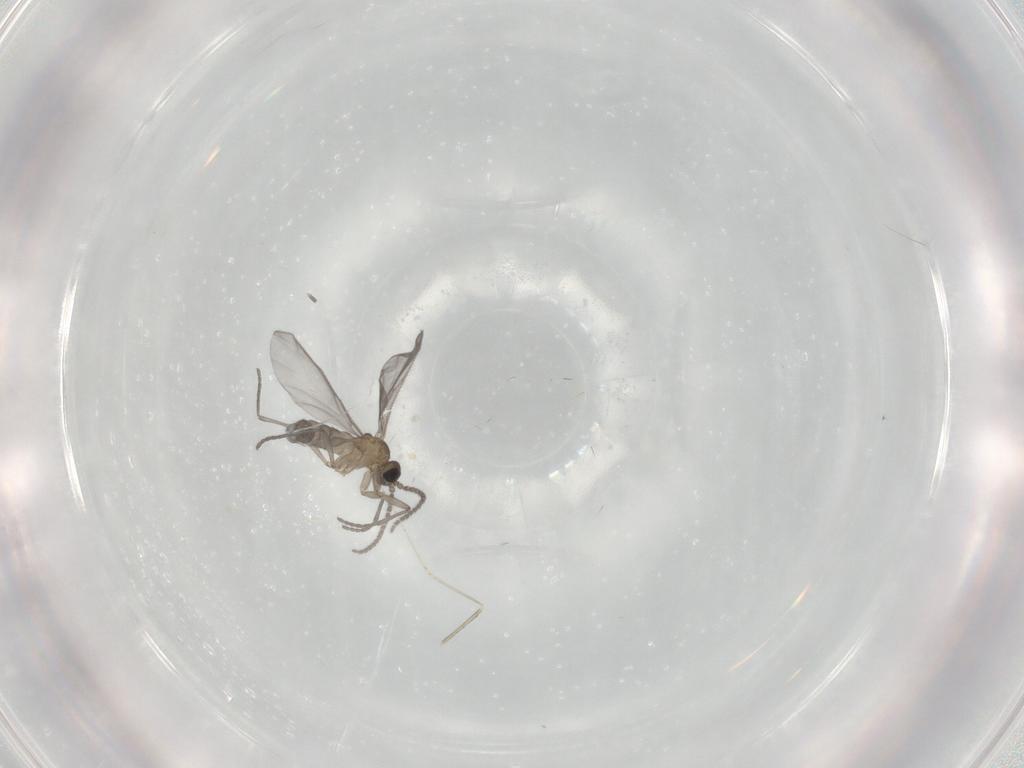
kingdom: Animalia
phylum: Arthropoda
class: Insecta
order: Diptera
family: Sciaridae
